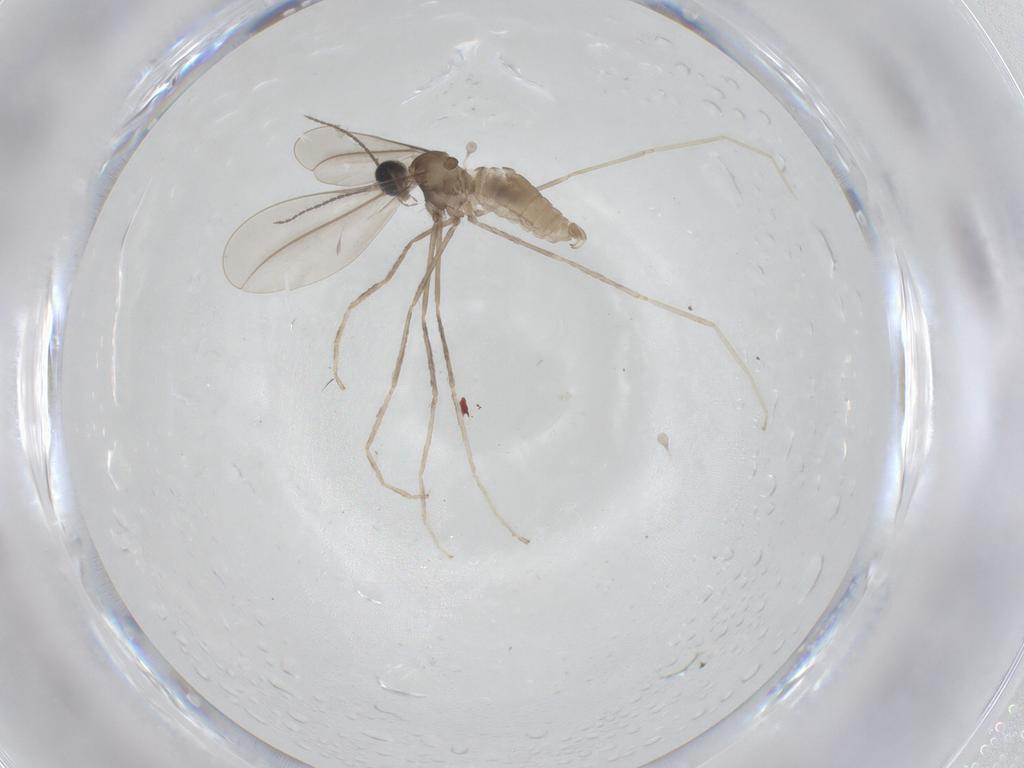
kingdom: Animalia
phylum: Arthropoda
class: Insecta
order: Diptera
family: Cecidomyiidae
